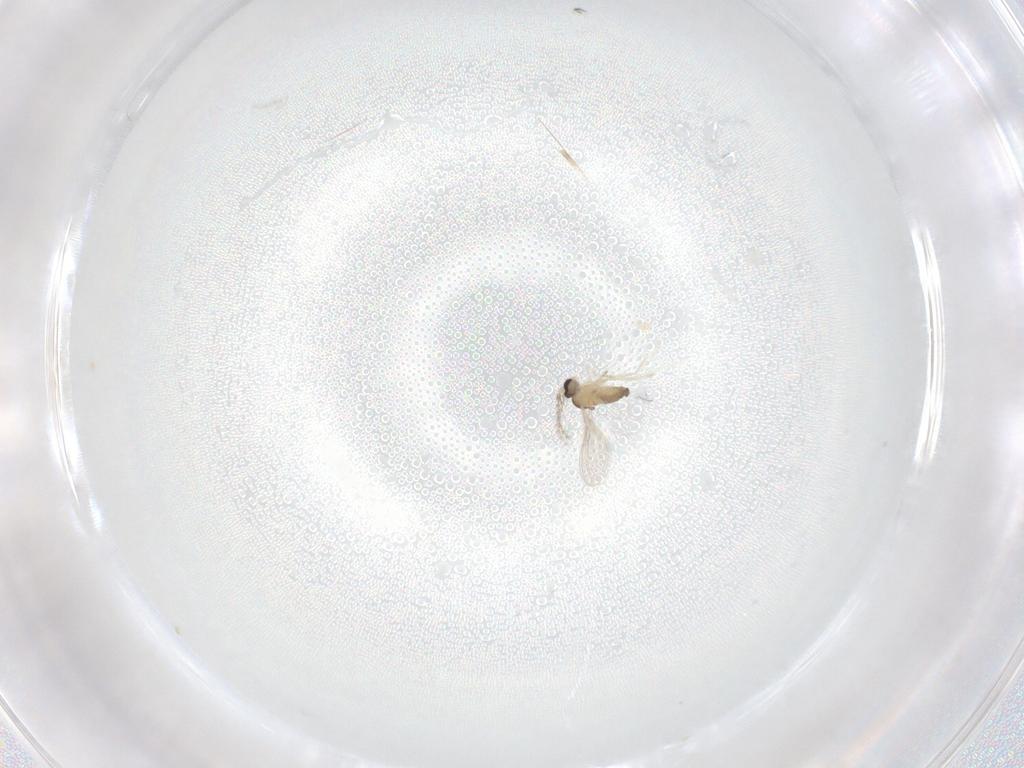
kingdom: Animalia
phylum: Arthropoda
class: Insecta
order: Diptera
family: Cecidomyiidae
